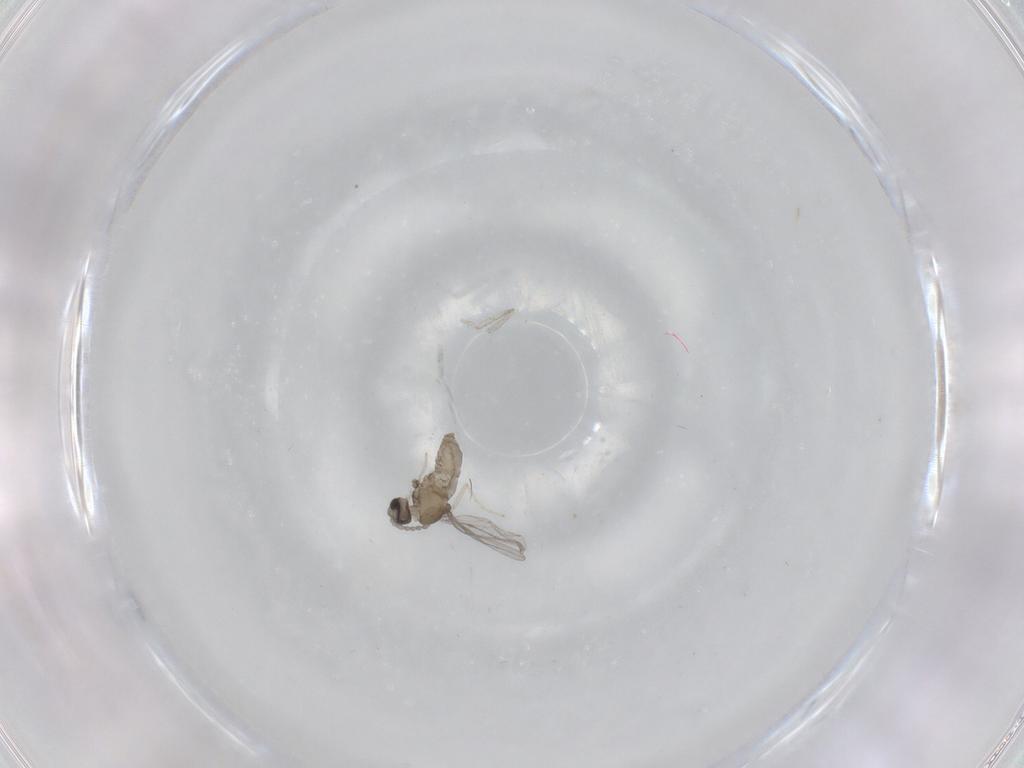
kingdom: Animalia
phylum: Arthropoda
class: Insecta
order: Diptera
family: Cecidomyiidae
